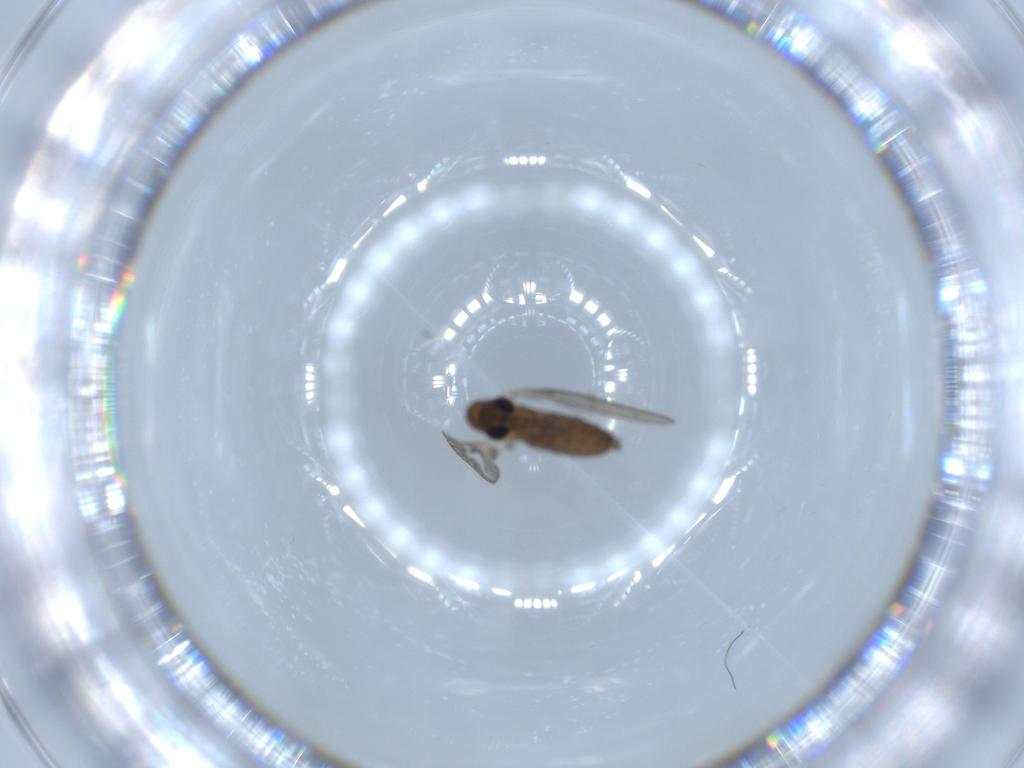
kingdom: Animalia
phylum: Arthropoda
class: Insecta
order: Diptera
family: Psychodidae
